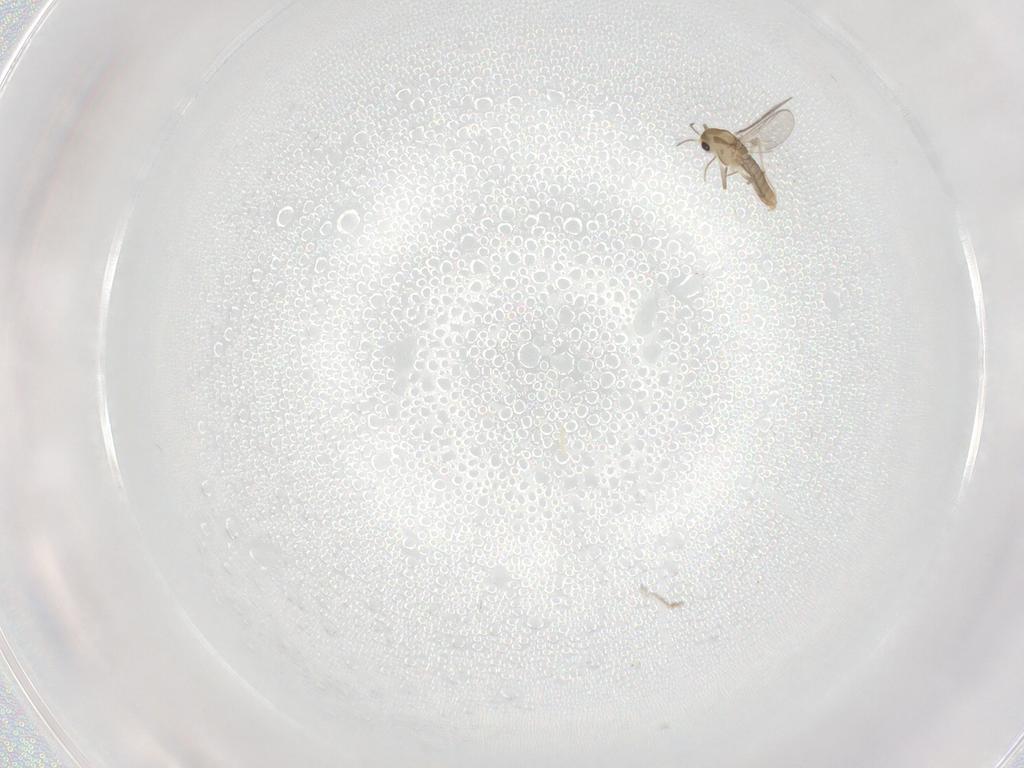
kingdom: Animalia
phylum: Arthropoda
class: Insecta
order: Diptera
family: Chironomidae
